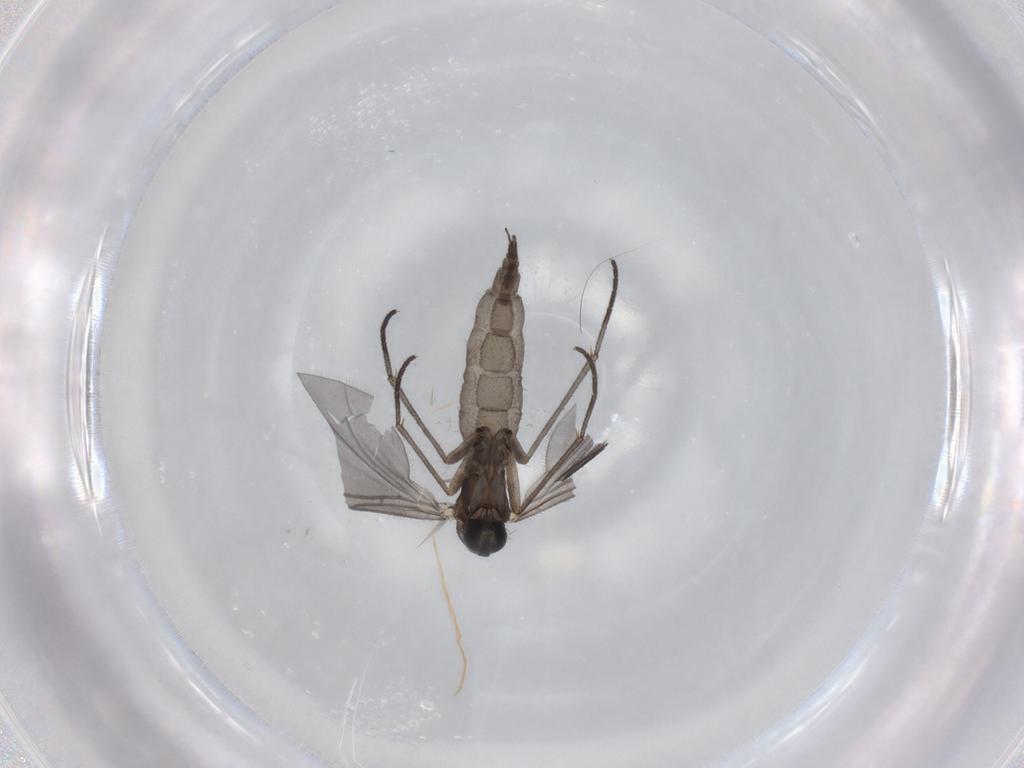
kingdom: Animalia
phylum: Arthropoda
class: Insecta
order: Diptera
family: Sciaridae
